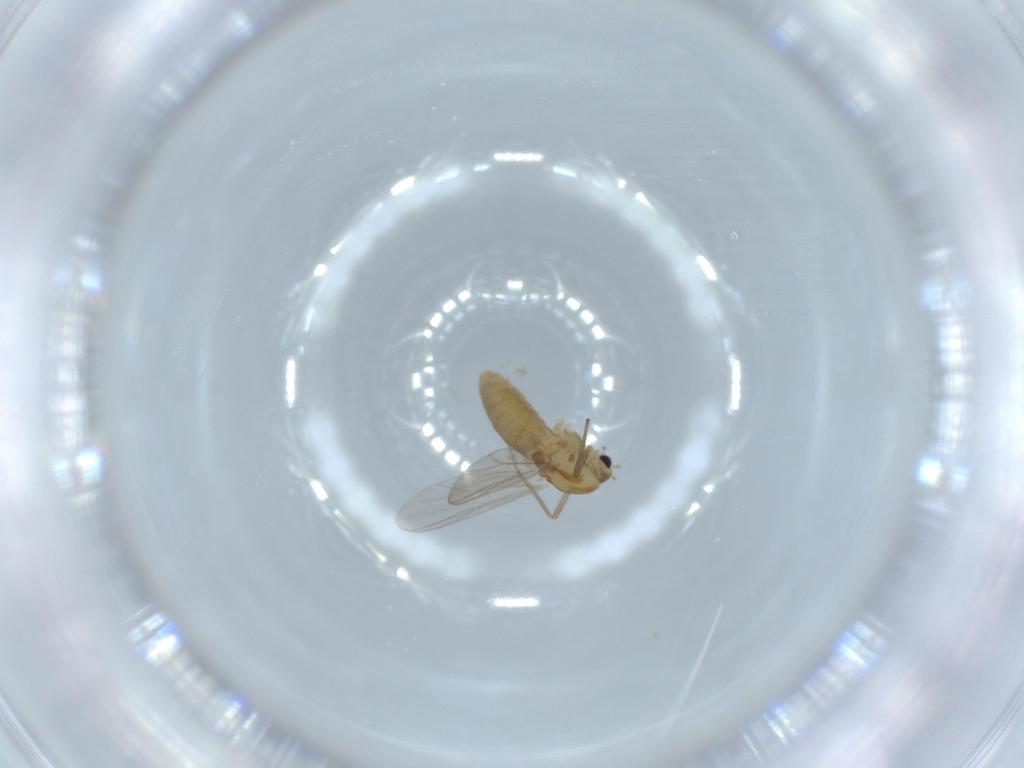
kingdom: Animalia
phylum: Arthropoda
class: Insecta
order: Diptera
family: Chironomidae
